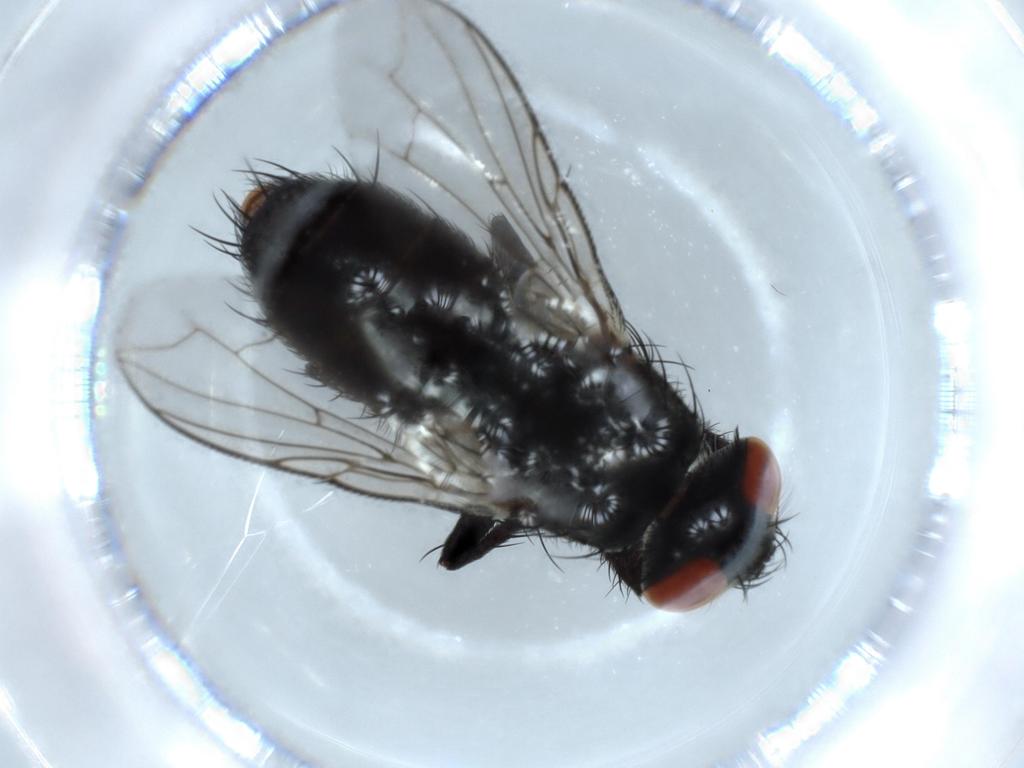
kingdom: Animalia
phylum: Arthropoda
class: Insecta
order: Diptera
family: Sarcophagidae
